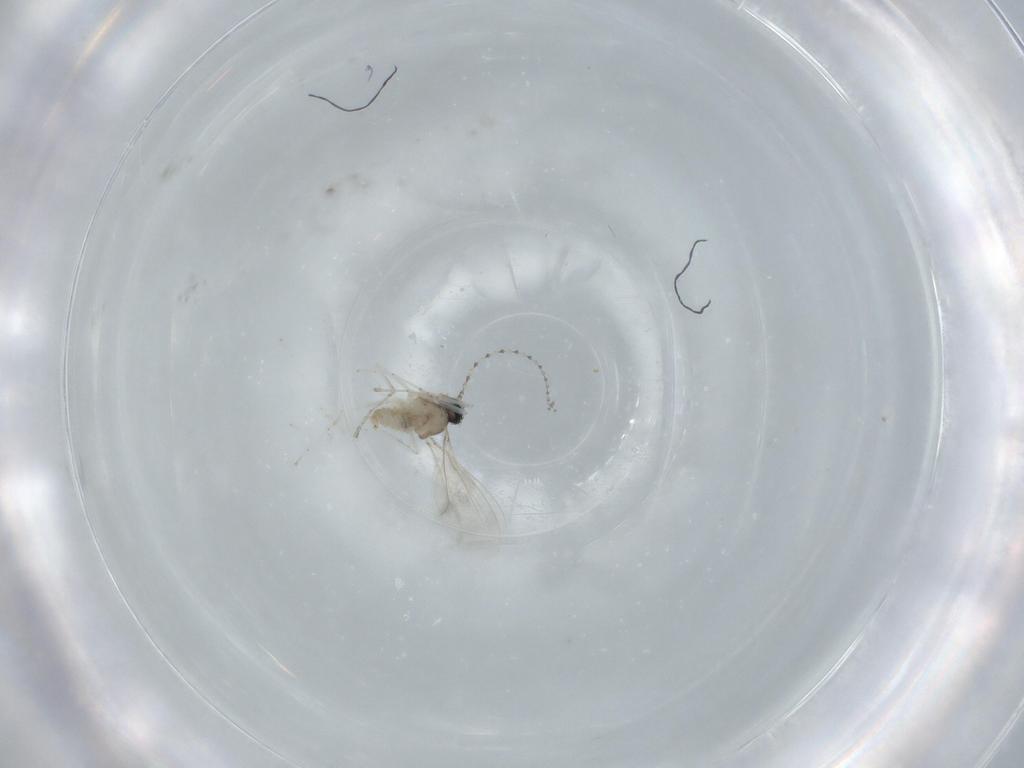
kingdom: Animalia
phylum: Arthropoda
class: Insecta
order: Diptera
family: Cecidomyiidae
